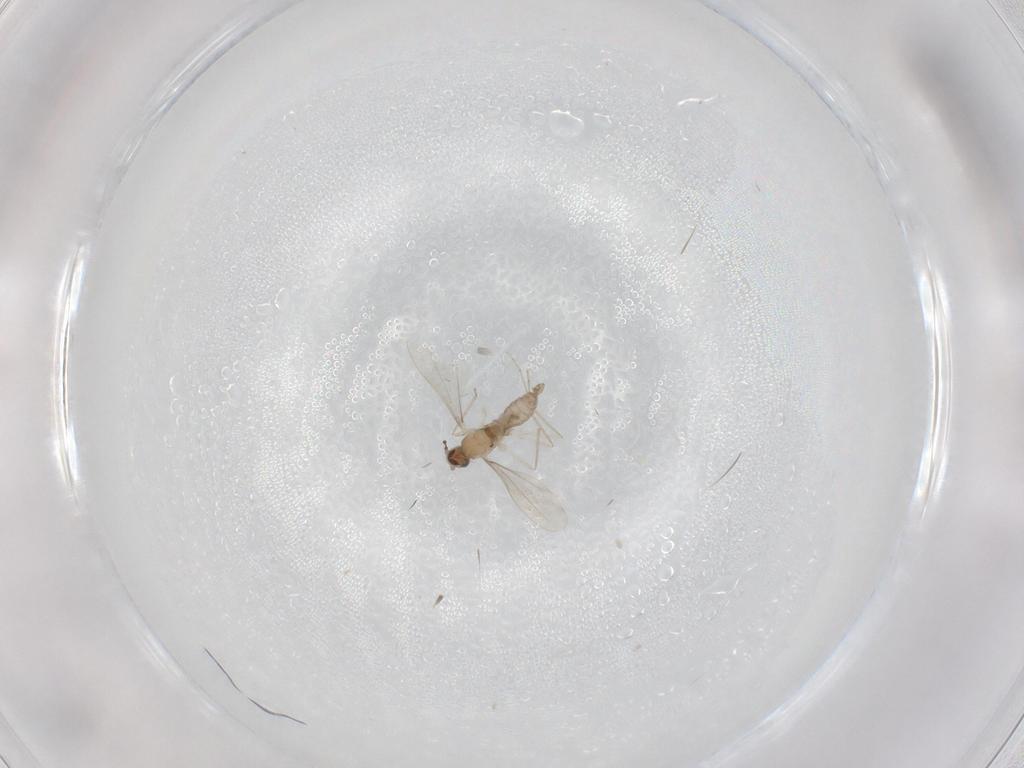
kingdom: Animalia
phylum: Arthropoda
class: Insecta
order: Diptera
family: Cecidomyiidae
